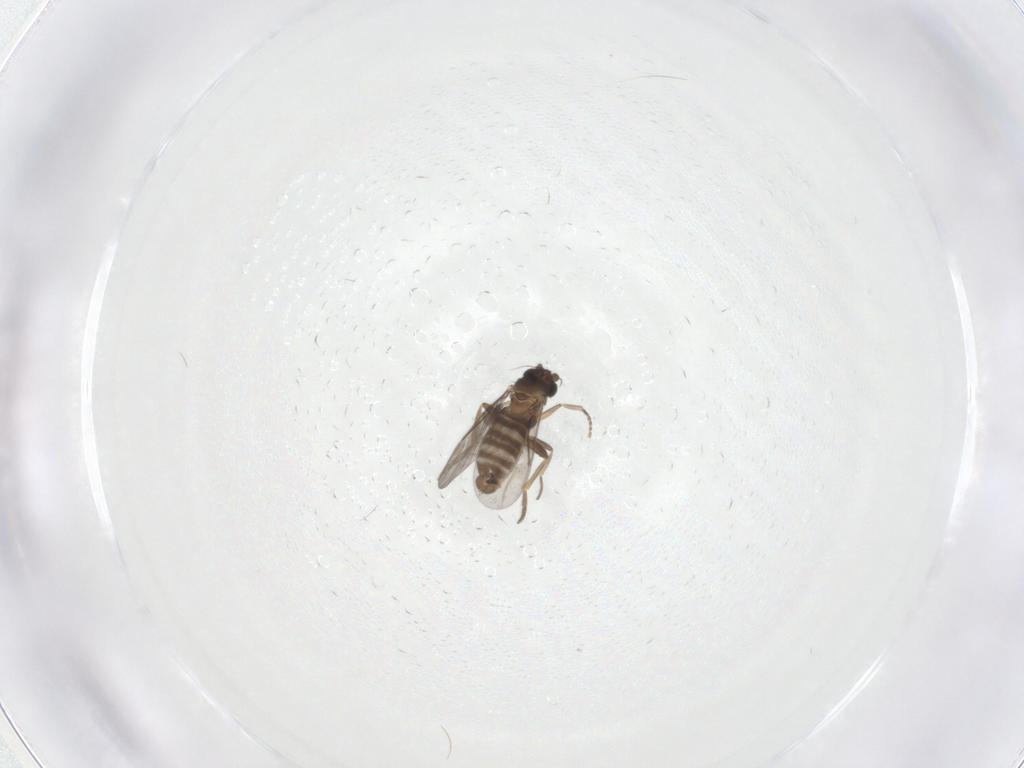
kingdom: Animalia
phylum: Arthropoda
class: Insecta
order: Diptera
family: Cecidomyiidae
